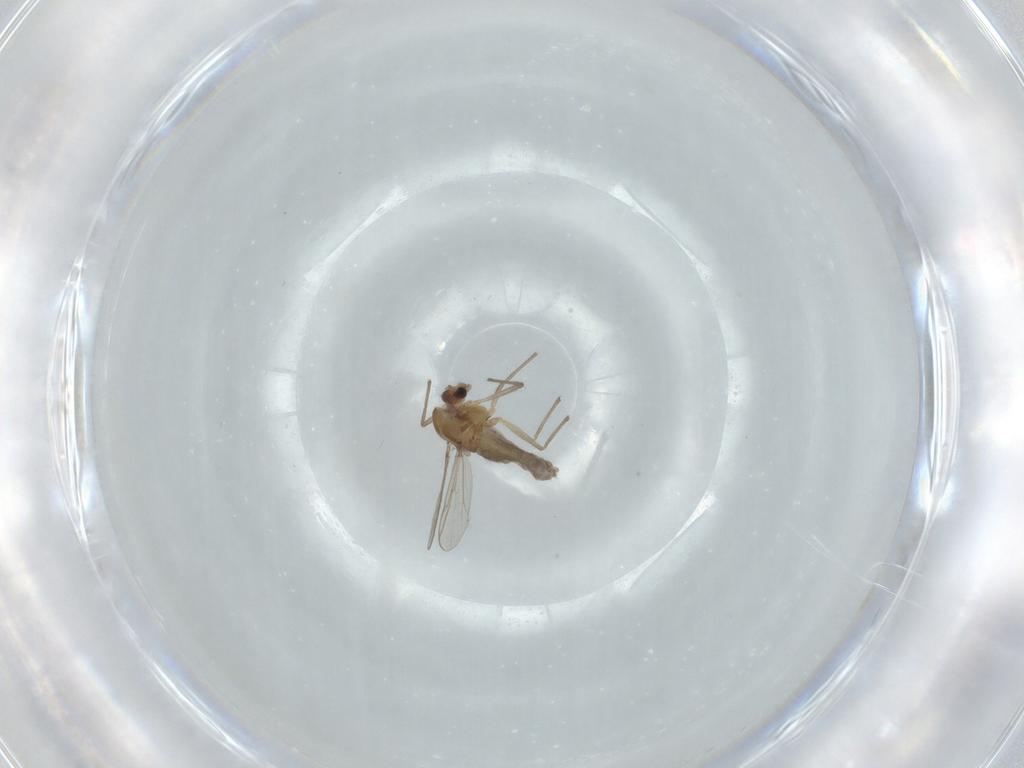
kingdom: Animalia
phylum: Arthropoda
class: Insecta
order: Diptera
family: Chironomidae
